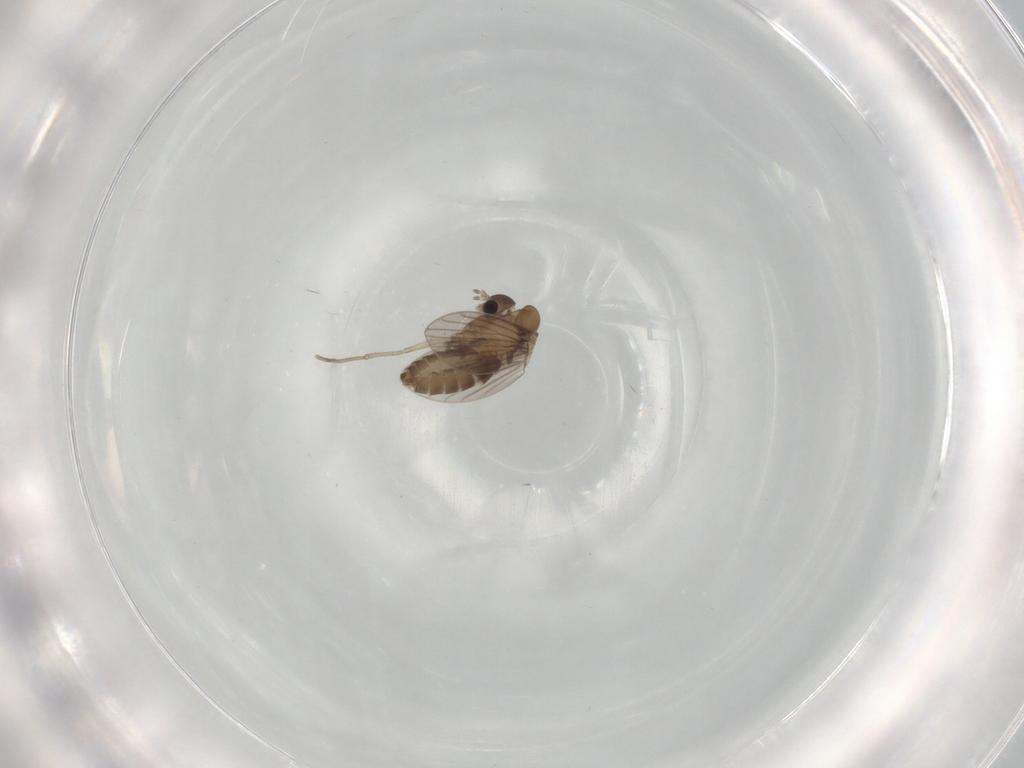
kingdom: Animalia
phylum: Arthropoda
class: Insecta
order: Diptera
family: Psychodidae
